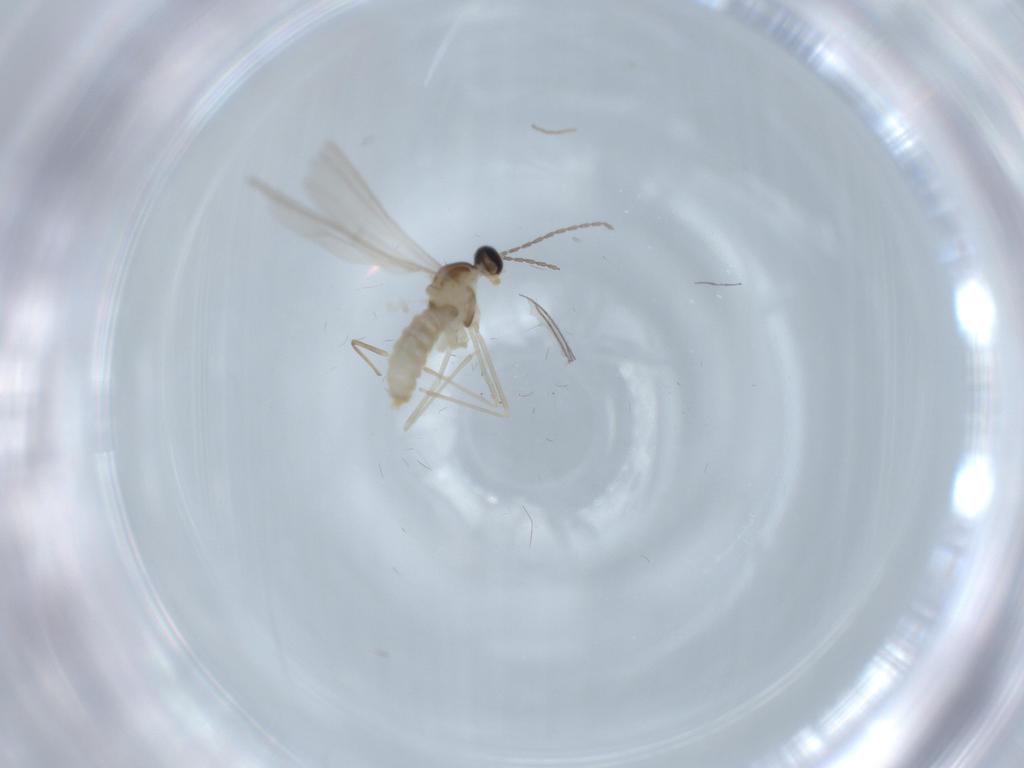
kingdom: Animalia
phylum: Arthropoda
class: Insecta
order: Diptera
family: Cecidomyiidae
